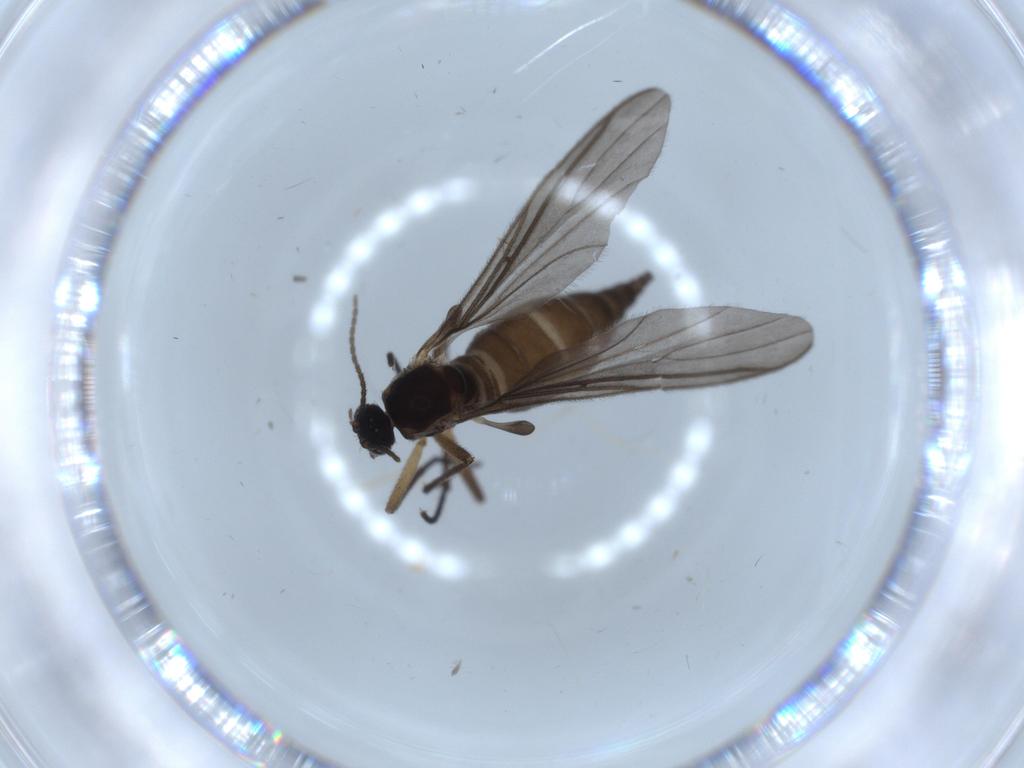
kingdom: Animalia
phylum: Arthropoda
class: Insecta
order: Diptera
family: Sciaridae
